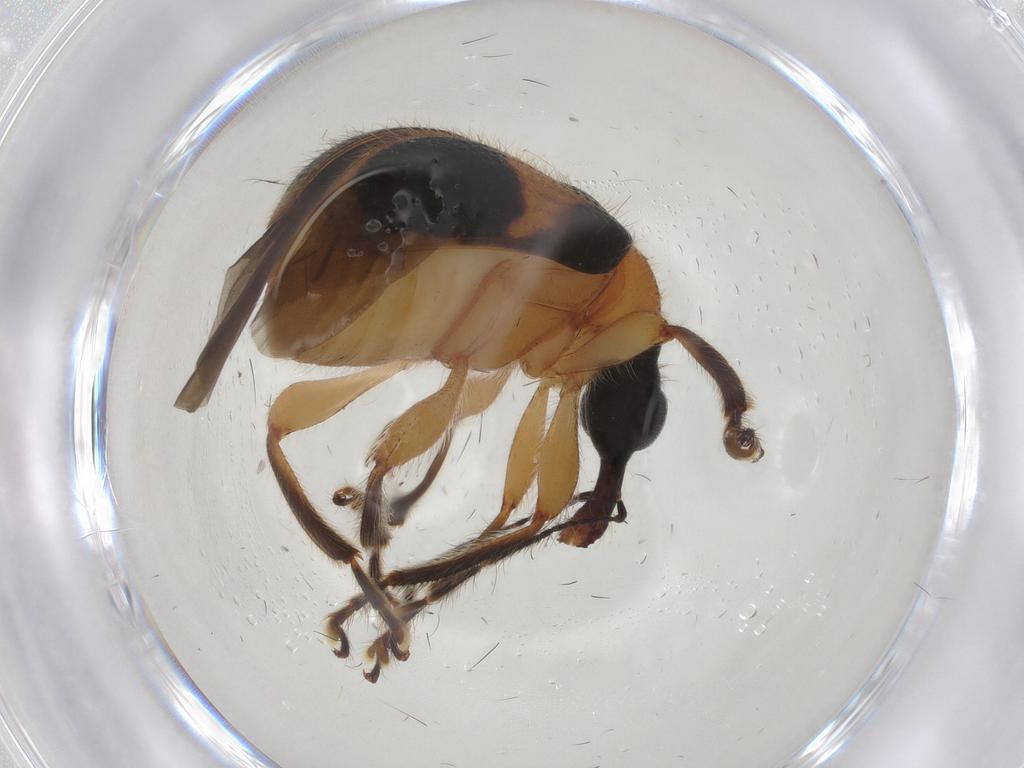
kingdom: Animalia
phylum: Arthropoda
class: Insecta
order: Coleoptera
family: Attelabidae
